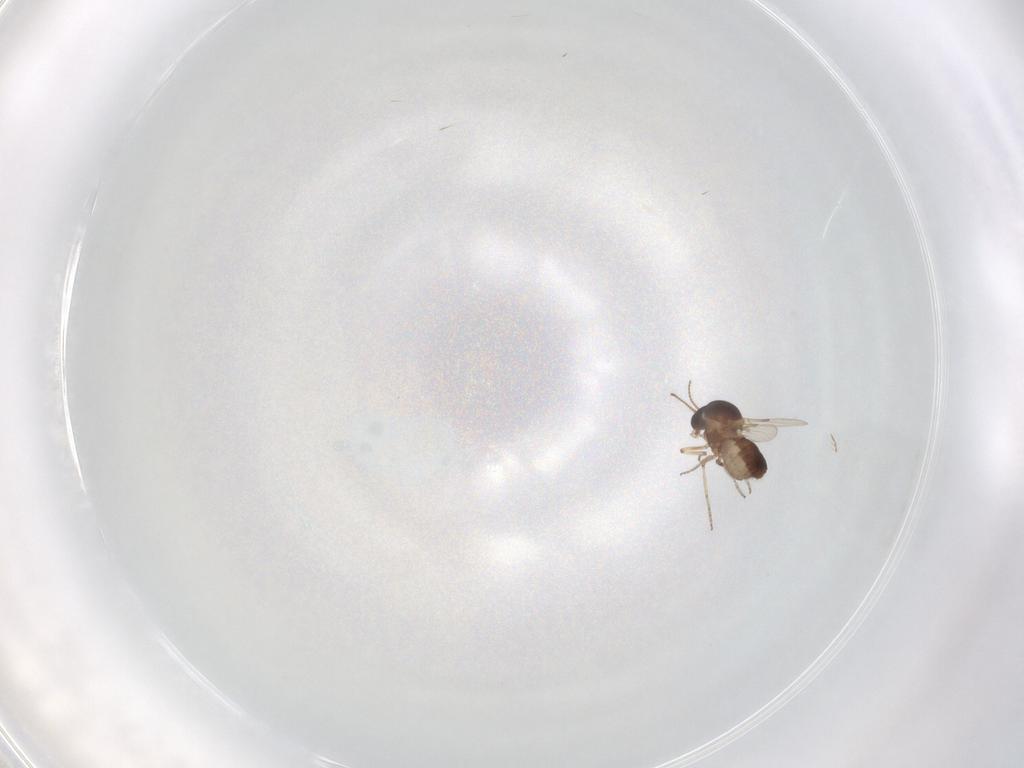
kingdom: Animalia
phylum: Arthropoda
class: Insecta
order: Diptera
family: Ceratopogonidae
